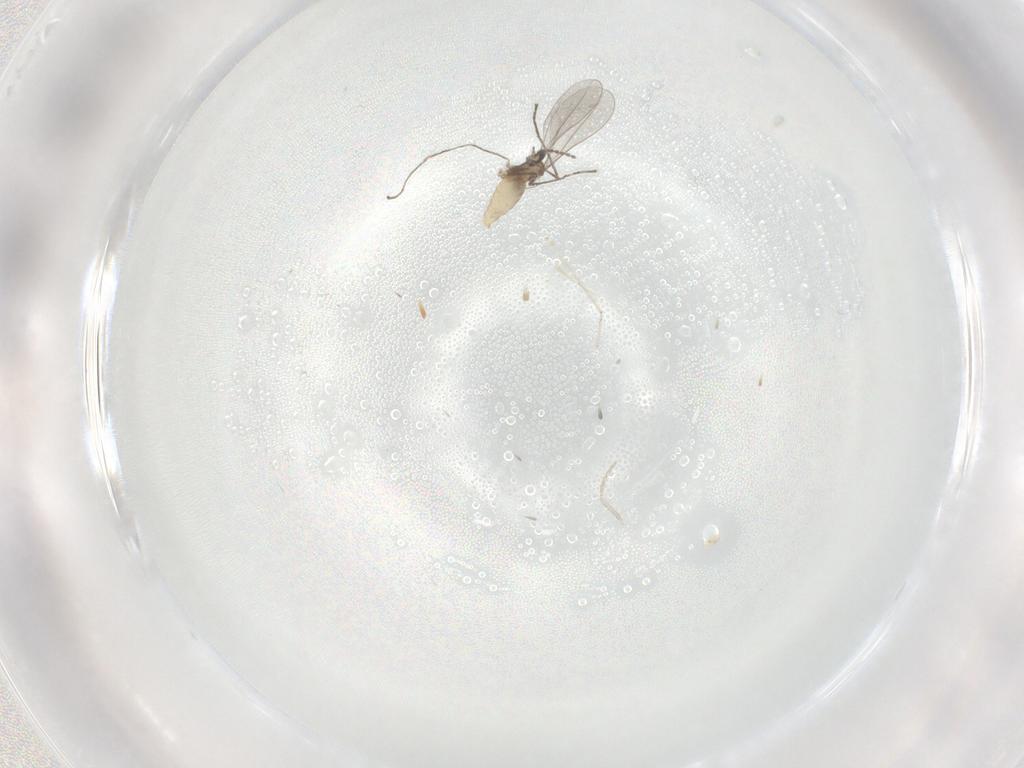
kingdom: Animalia
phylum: Arthropoda
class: Insecta
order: Diptera
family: Cecidomyiidae
